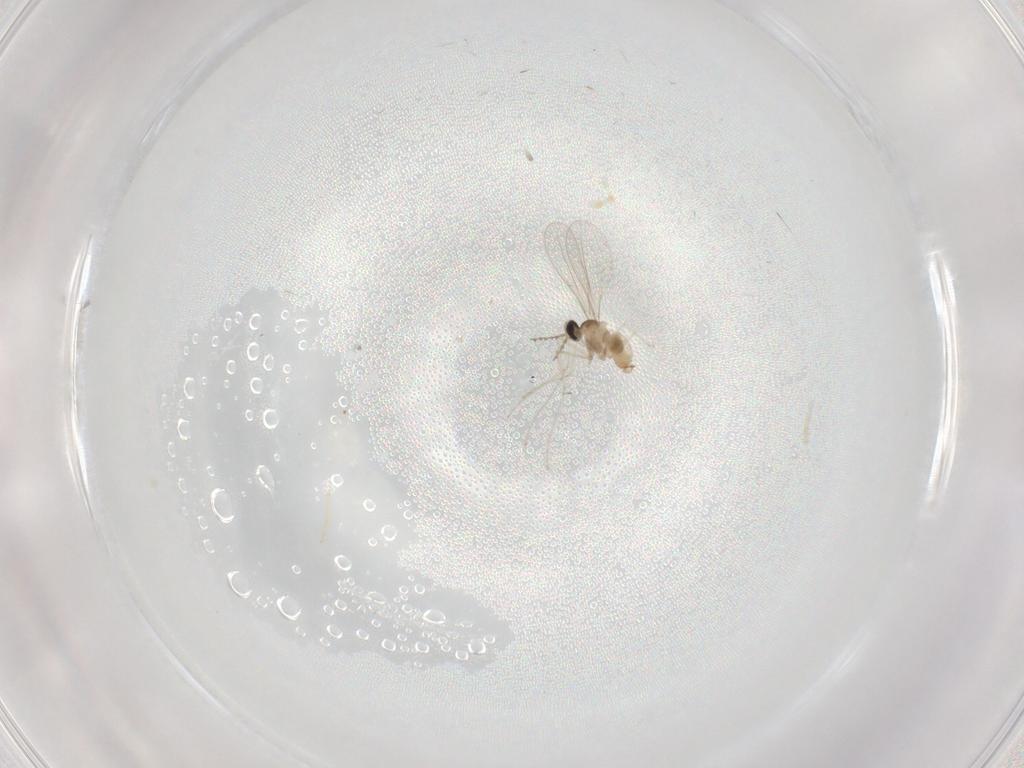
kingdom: Animalia
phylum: Arthropoda
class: Insecta
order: Diptera
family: Cecidomyiidae
